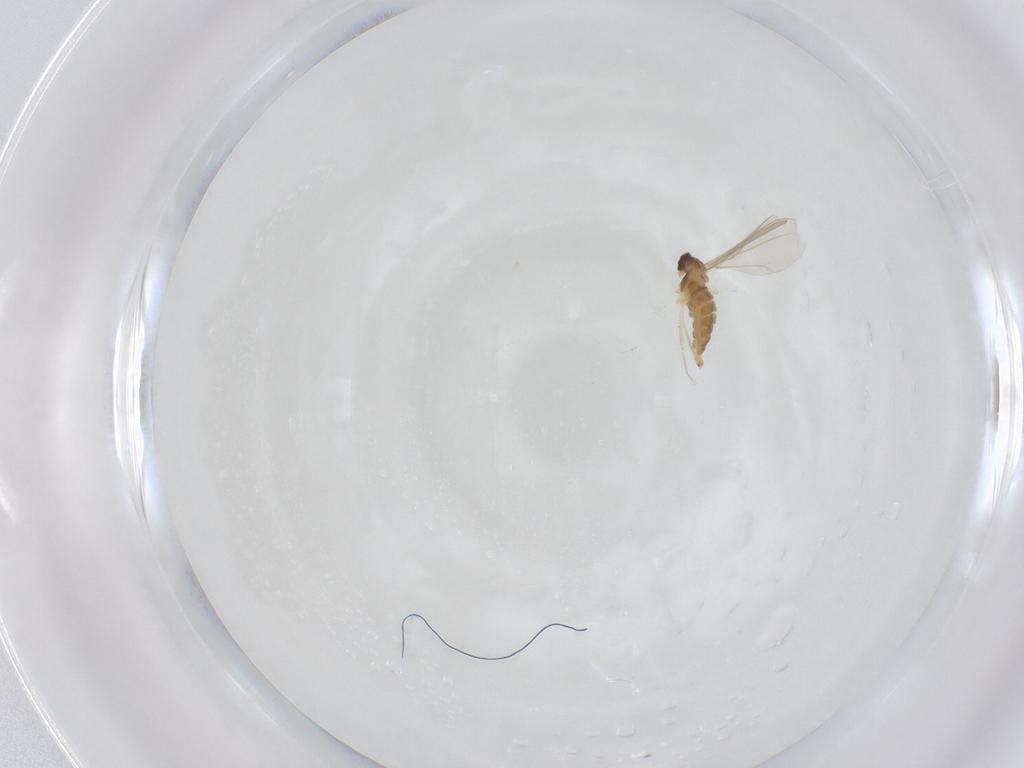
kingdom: Animalia
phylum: Arthropoda
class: Insecta
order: Diptera
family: Cecidomyiidae
